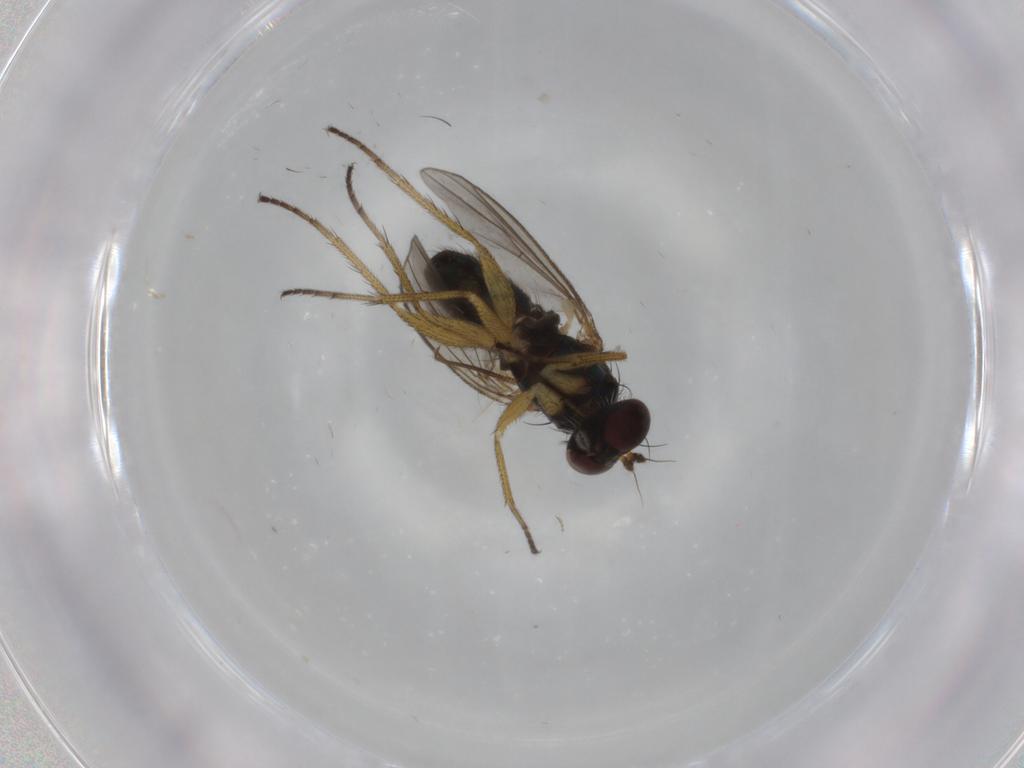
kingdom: Animalia
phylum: Arthropoda
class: Insecta
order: Diptera
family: Dolichopodidae
